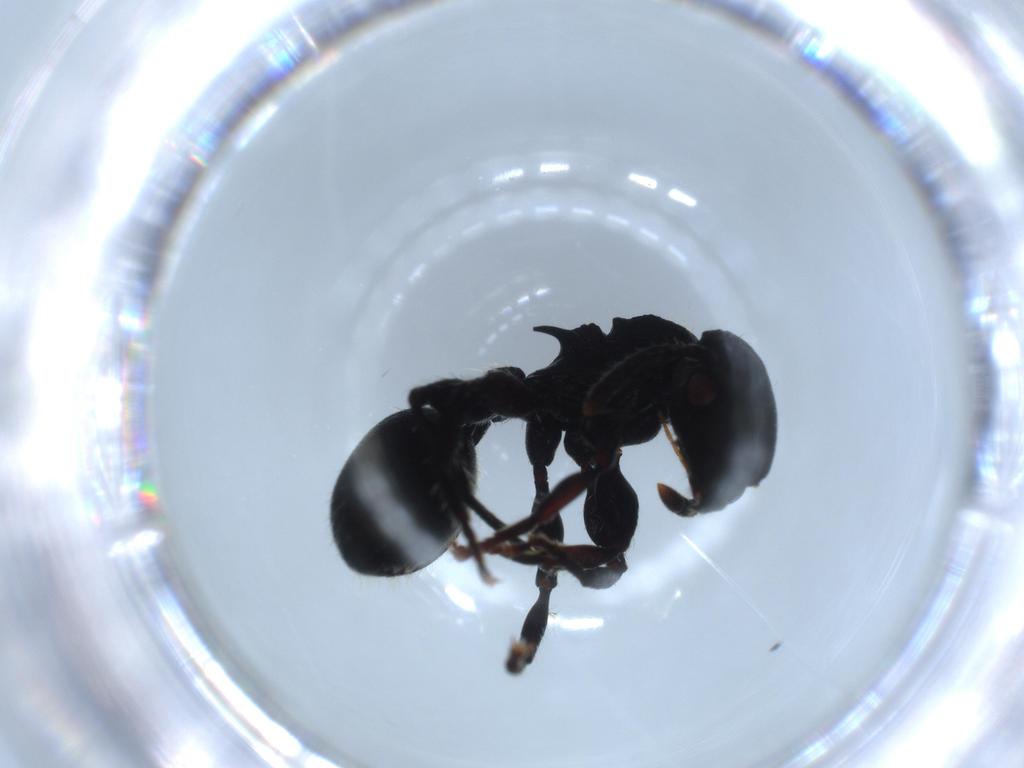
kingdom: Animalia
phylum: Arthropoda
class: Insecta
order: Hymenoptera
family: Formicidae
